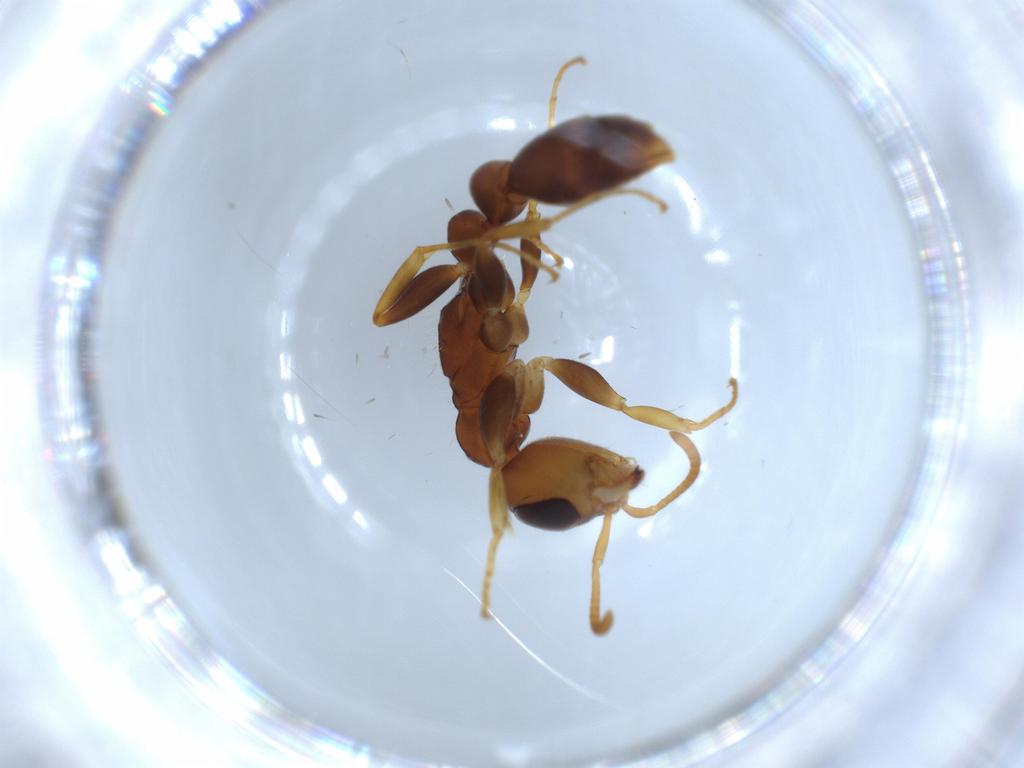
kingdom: Animalia
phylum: Arthropoda
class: Insecta
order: Hymenoptera
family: Formicidae
